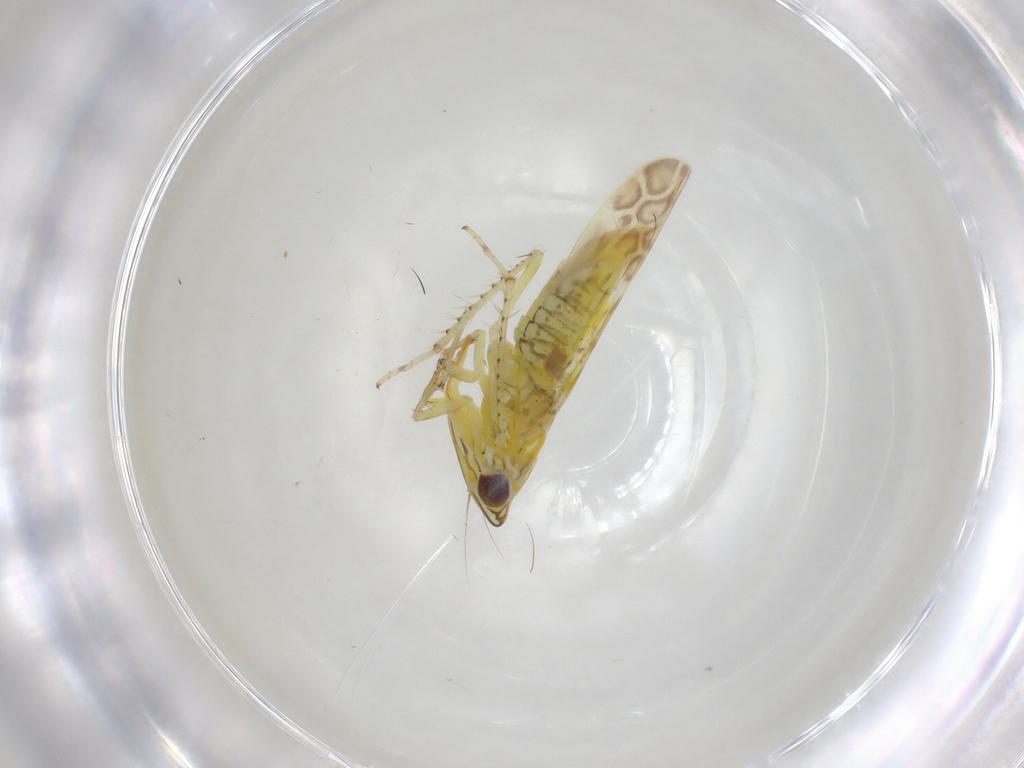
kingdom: Animalia
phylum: Arthropoda
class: Insecta
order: Hemiptera
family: Cicadellidae
